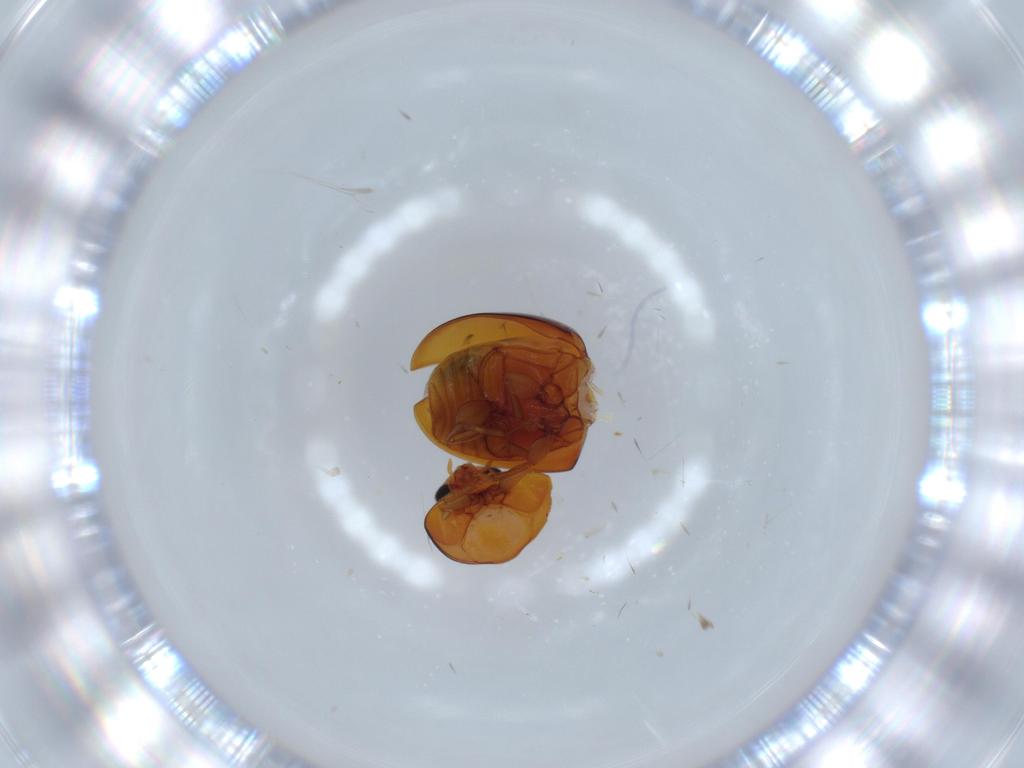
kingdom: Animalia
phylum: Arthropoda
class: Insecta
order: Coleoptera
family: Phalacridae
